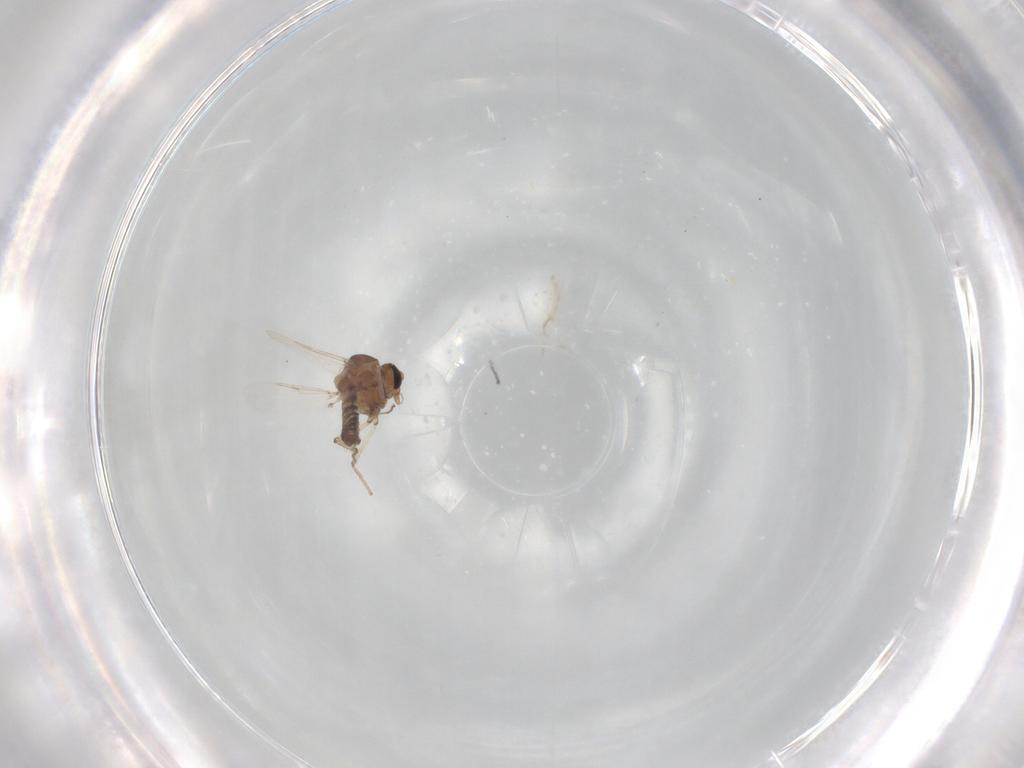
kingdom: Animalia
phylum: Arthropoda
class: Insecta
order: Diptera
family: Ceratopogonidae
